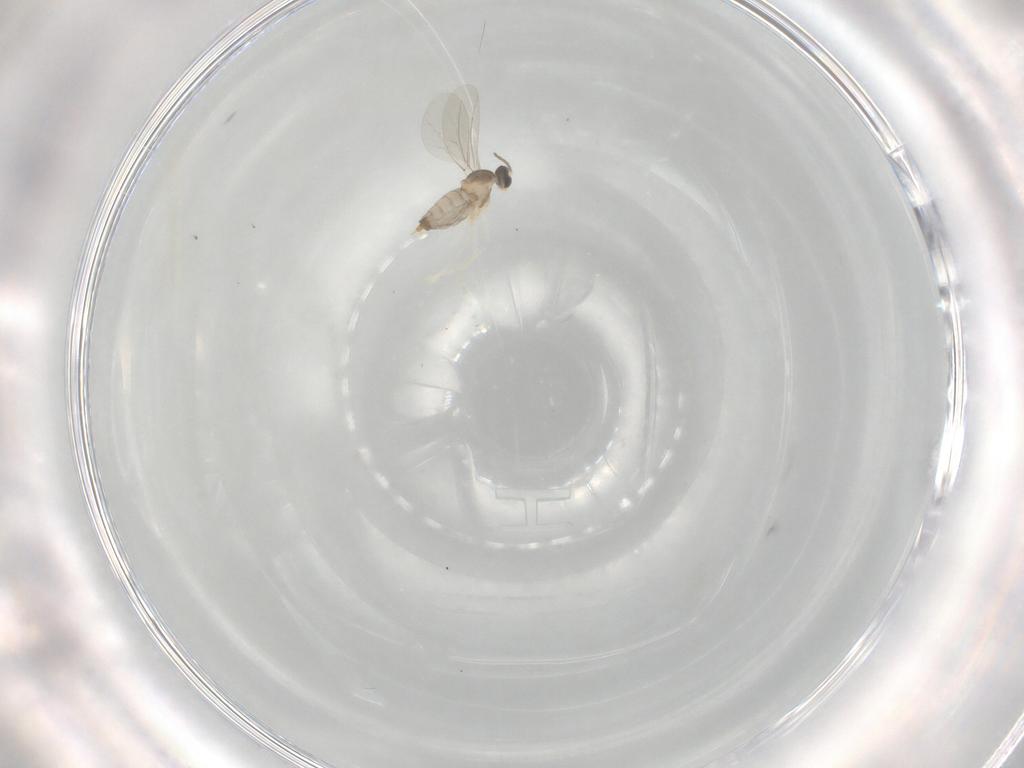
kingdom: Animalia
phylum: Arthropoda
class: Insecta
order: Diptera
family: Cecidomyiidae
